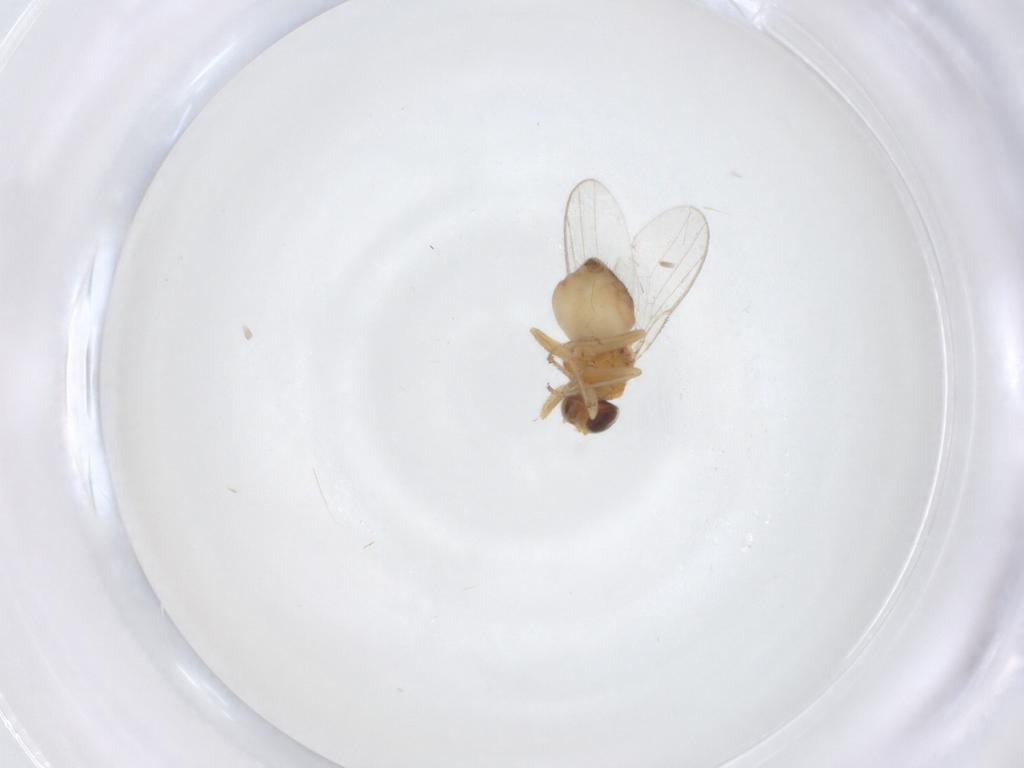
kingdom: Animalia
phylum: Arthropoda
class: Insecta
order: Diptera
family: Chloropidae
